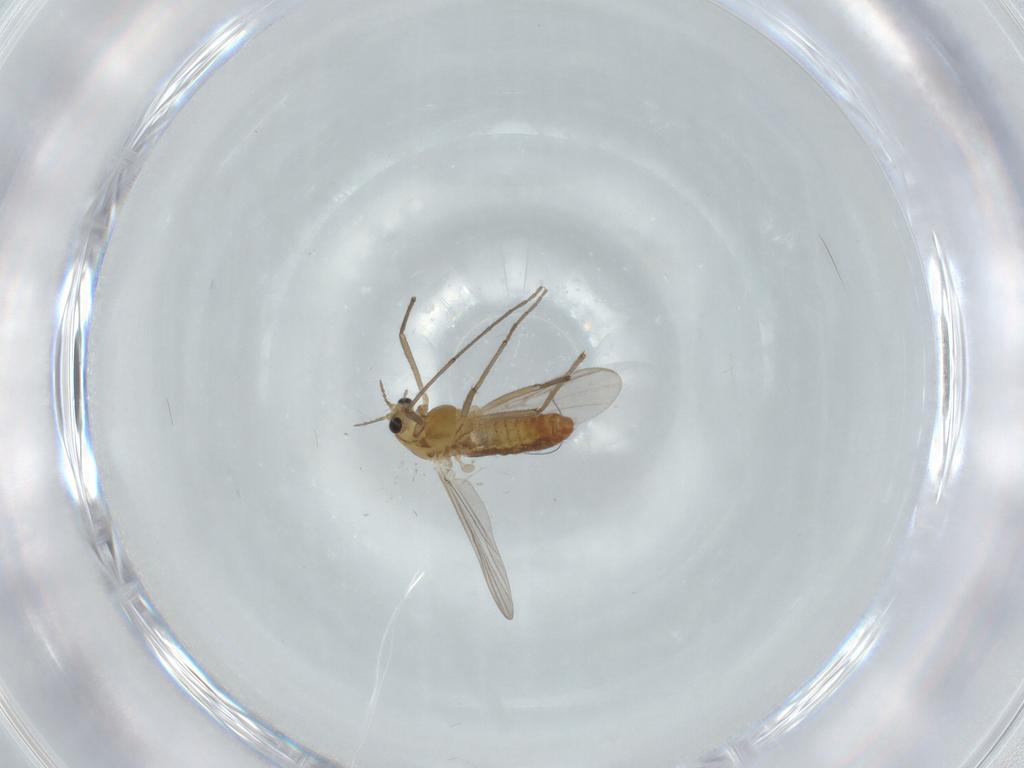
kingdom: Animalia
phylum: Arthropoda
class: Insecta
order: Diptera
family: Chironomidae
